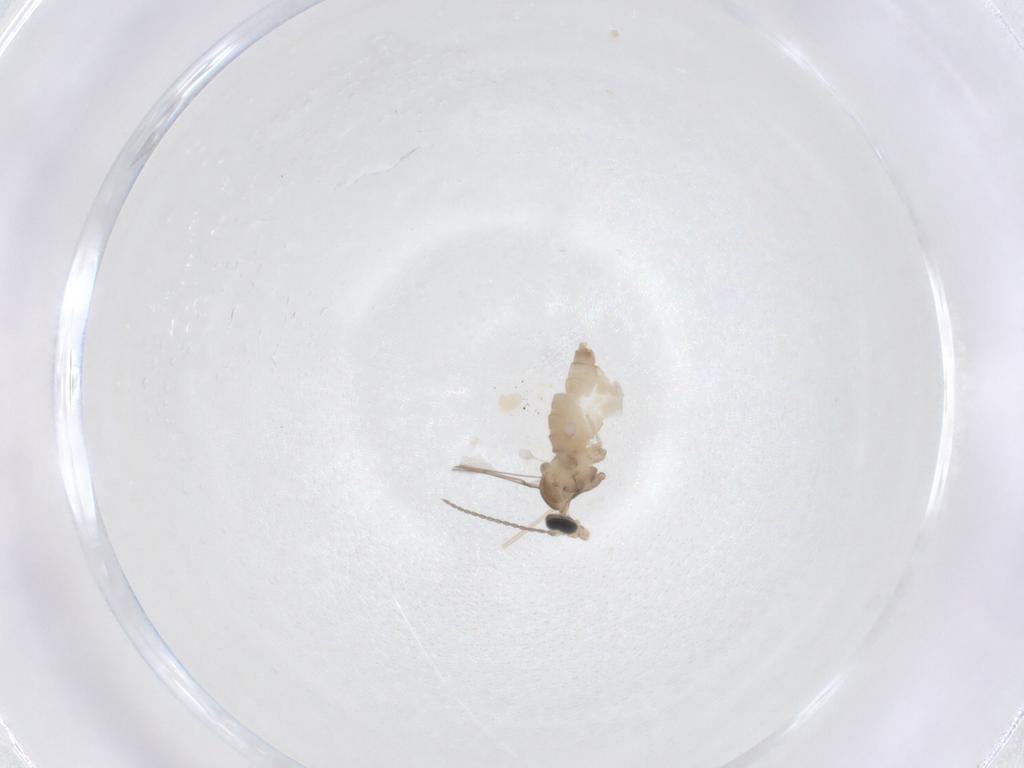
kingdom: Animalia
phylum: Arthropoda
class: Insecta
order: Diptera
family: Cecidomyiidae
